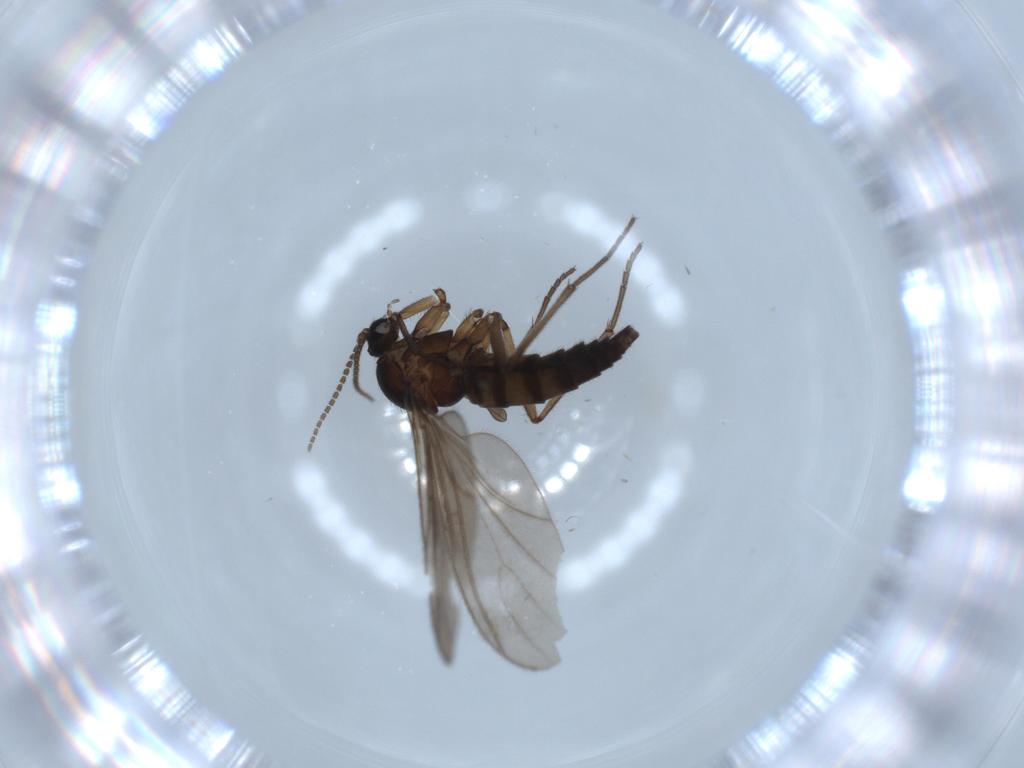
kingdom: Animalia
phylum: Arthropoda
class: Insecta
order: Diptera
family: Sciaridae
